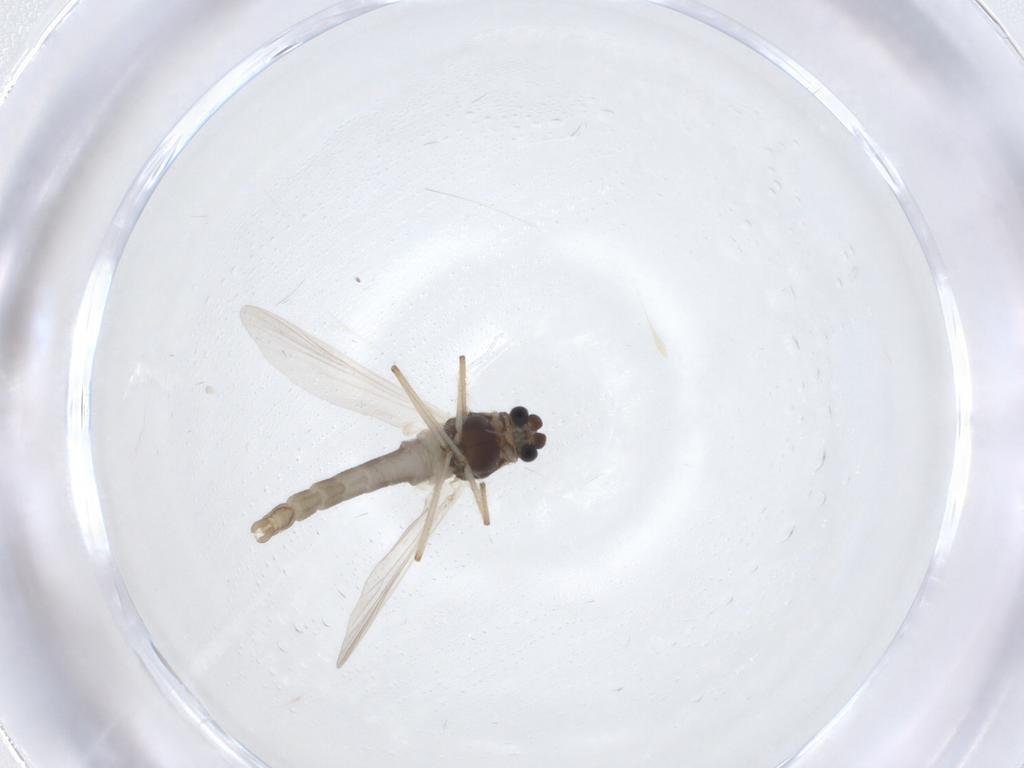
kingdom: Animalia
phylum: Arthropoda
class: Insecta
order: Diptera
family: Chironomidae
